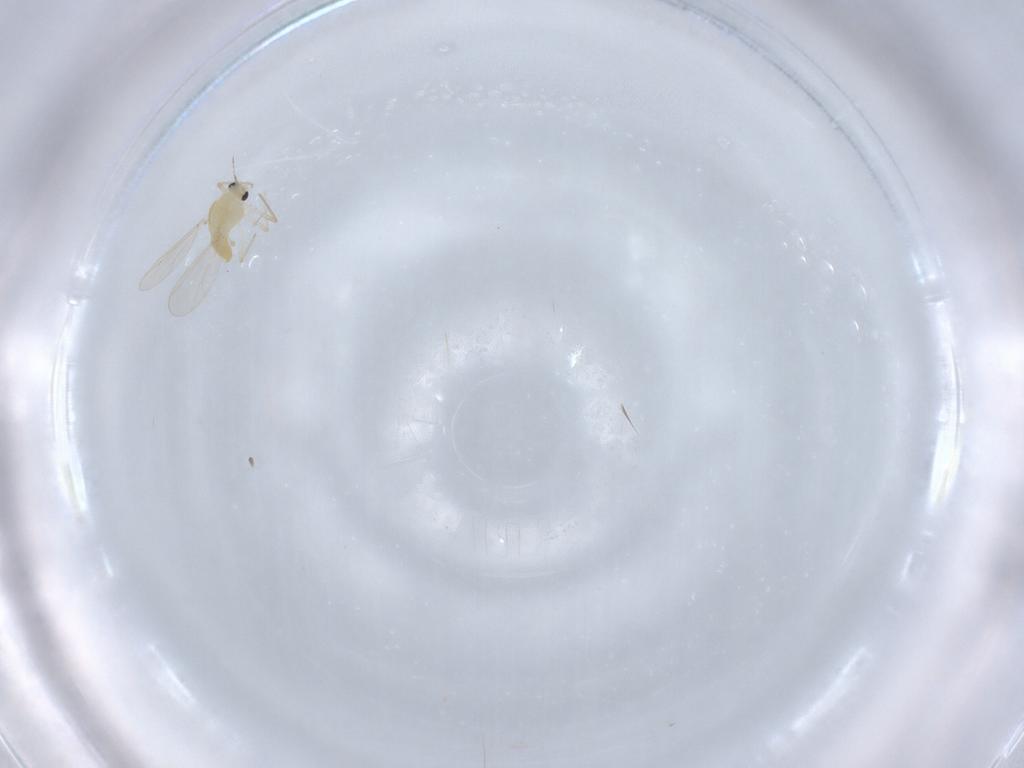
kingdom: Animalia
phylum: Arthropoda
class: Insecta
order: Diptera
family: Chironomidae
